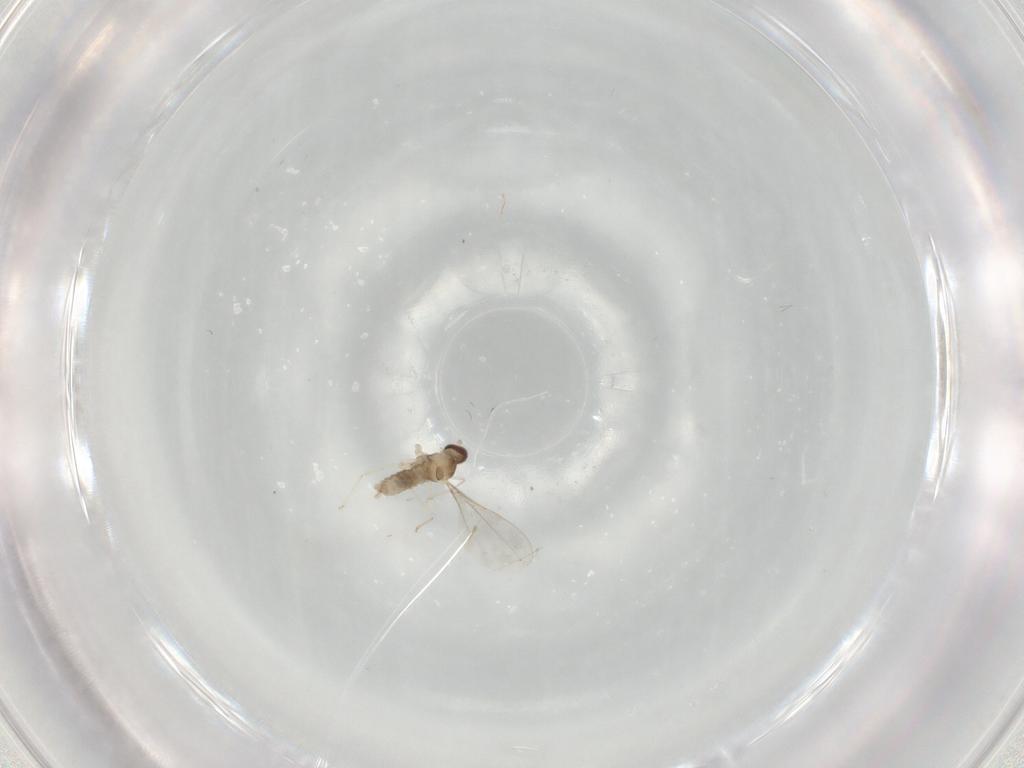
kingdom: Animalia
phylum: Arthropoda
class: Insecta
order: Diptera
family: Cecidomyiidae
